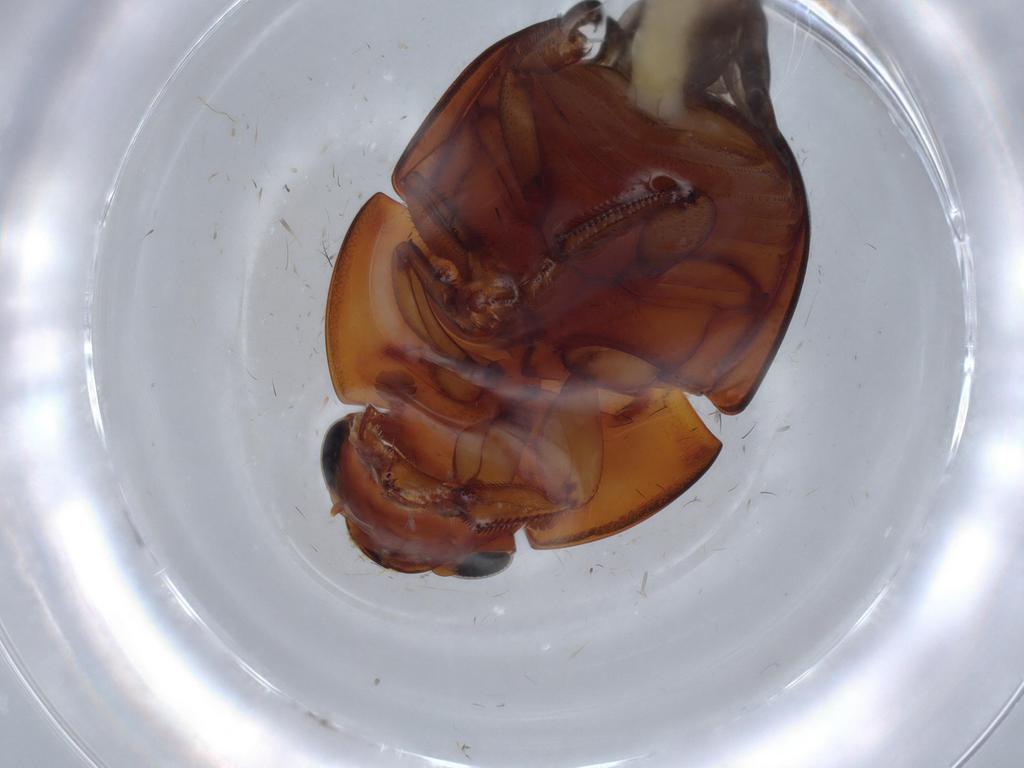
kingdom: Animalia
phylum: Arthropoda
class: Insecta
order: Coleoptera
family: Nitidulidae
